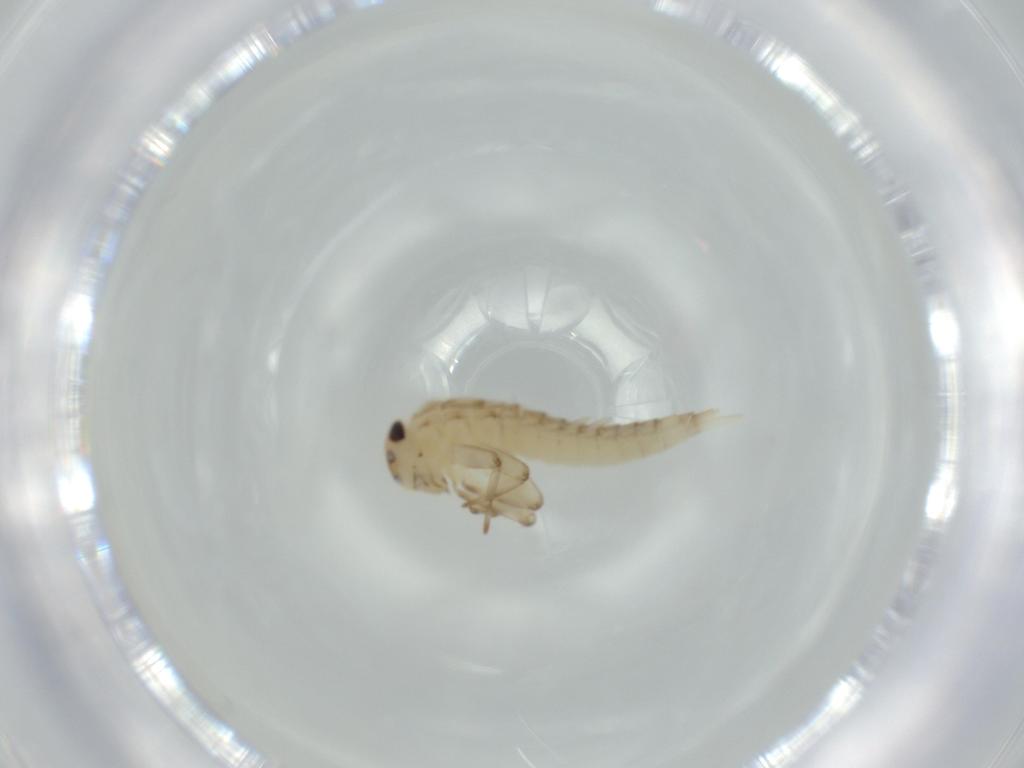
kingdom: Animalia
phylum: Arthropoda
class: Insecta
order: Ephemeroptera
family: Baetidae
